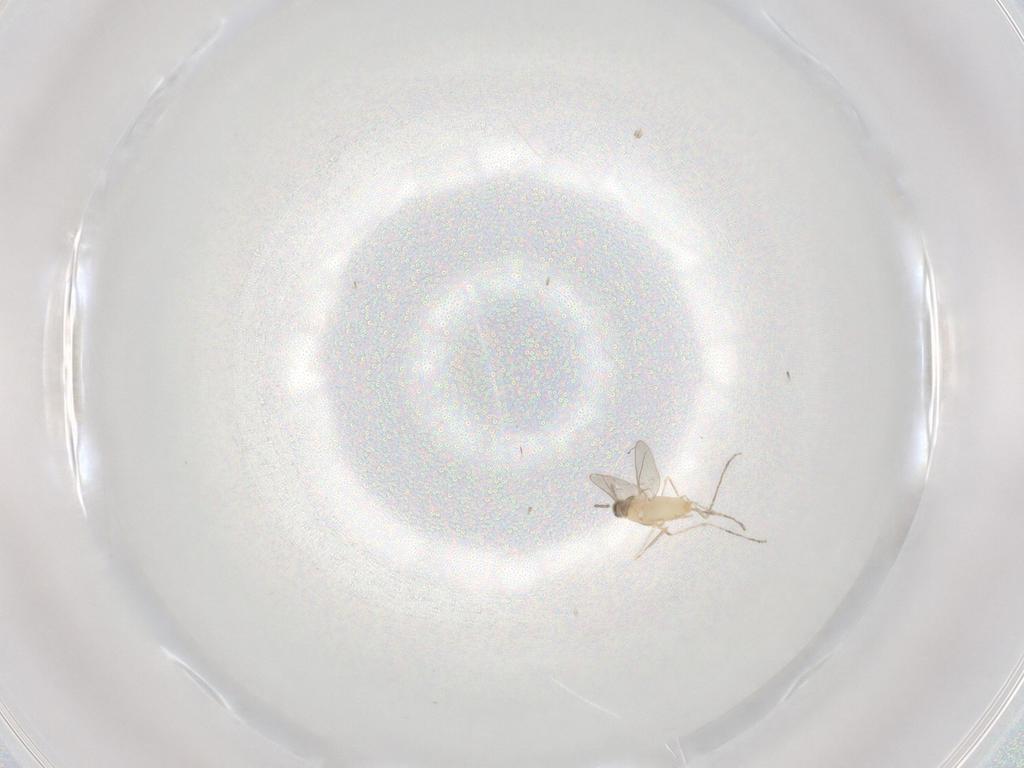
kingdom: Animalia
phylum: Arthropoda
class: Insecta
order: Diptera
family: Cecidomyiidae
